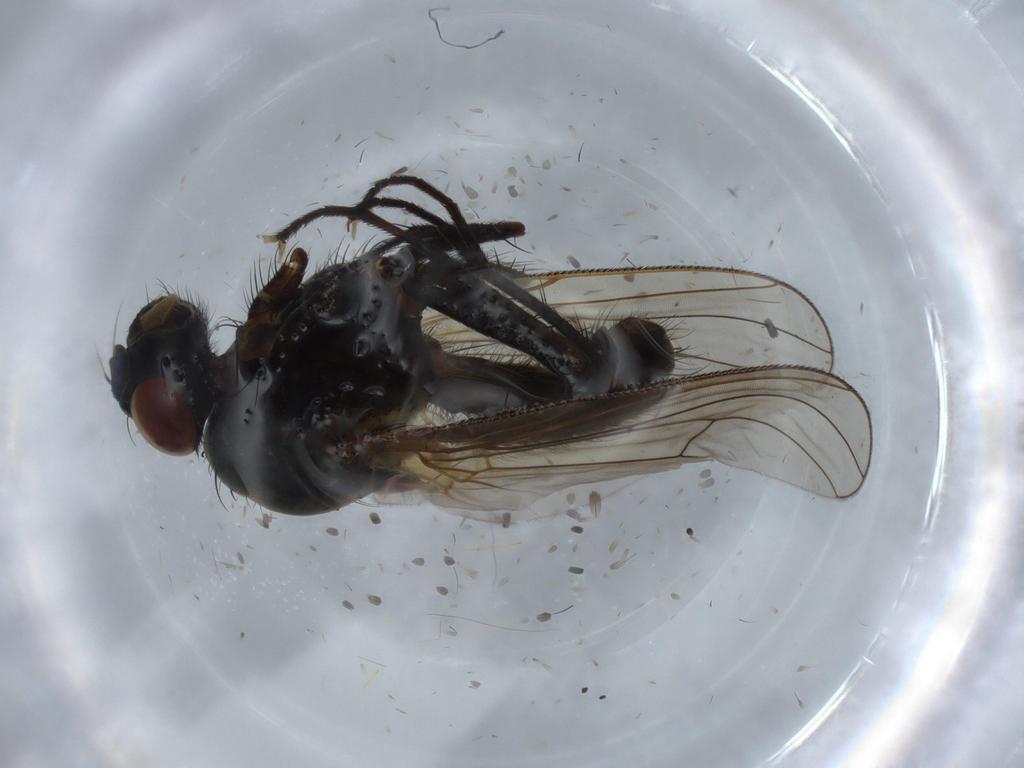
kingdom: Animalia
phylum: Arthropoda
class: Insecta
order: Diptera
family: Anthomyiidae
